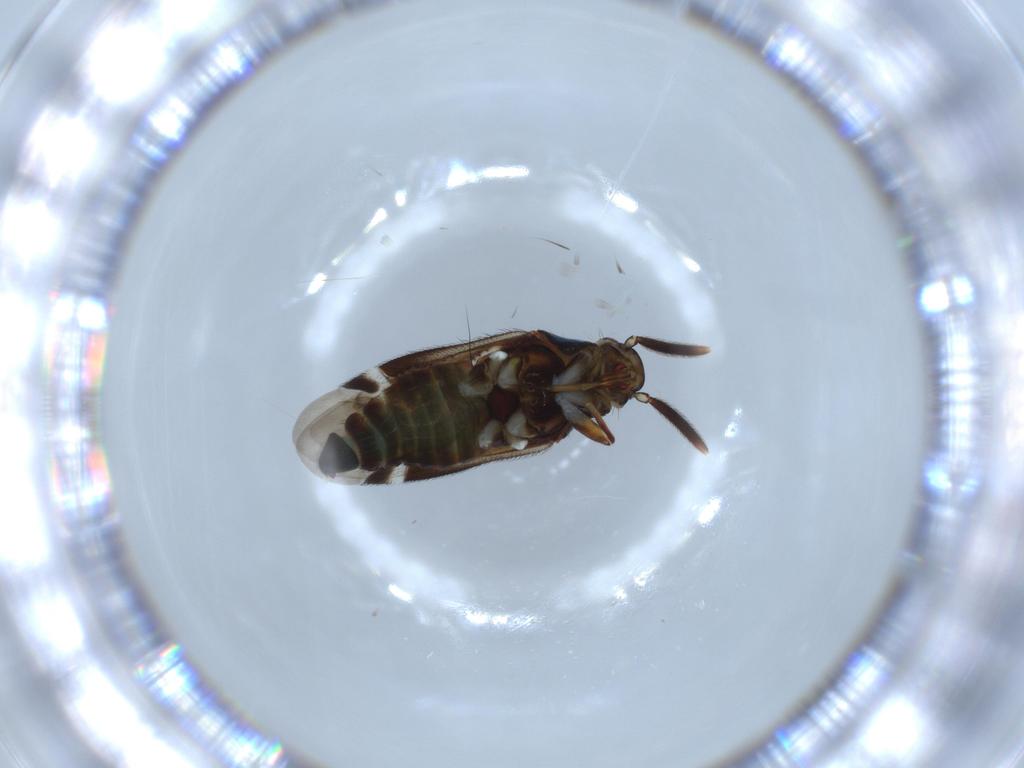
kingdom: Animalia
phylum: Arthropoda
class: Insecta
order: Hemiptera
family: Miridae
